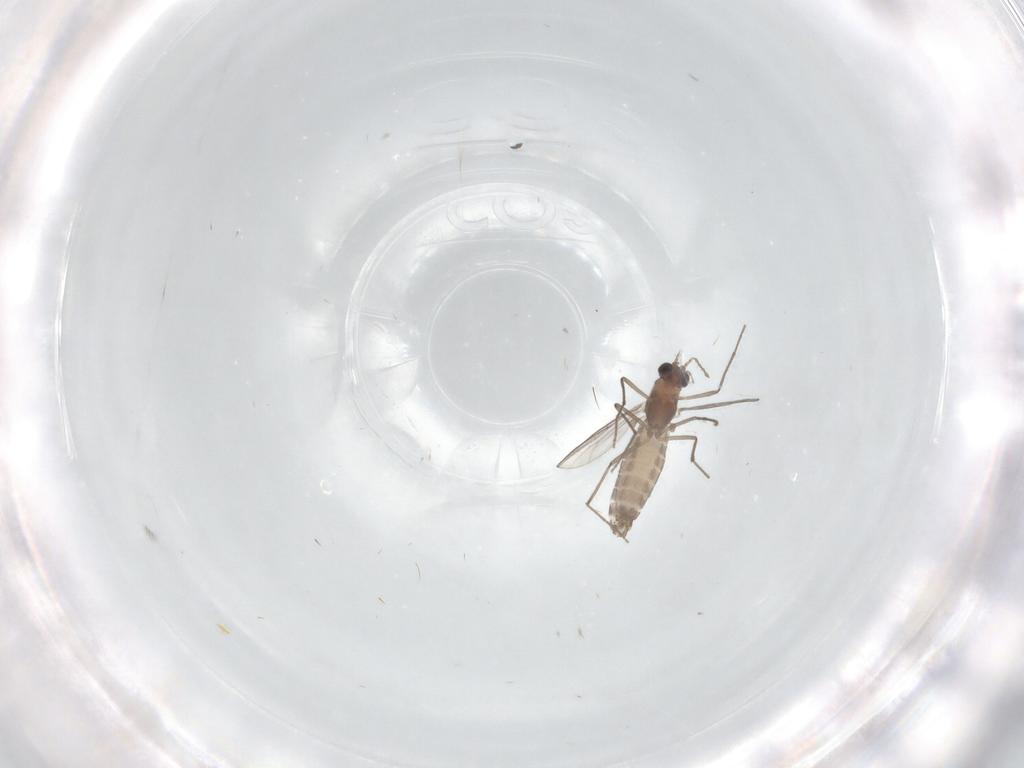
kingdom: Animalia
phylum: Arthropoda
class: Insecta
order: Diptera
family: Chironomidae
